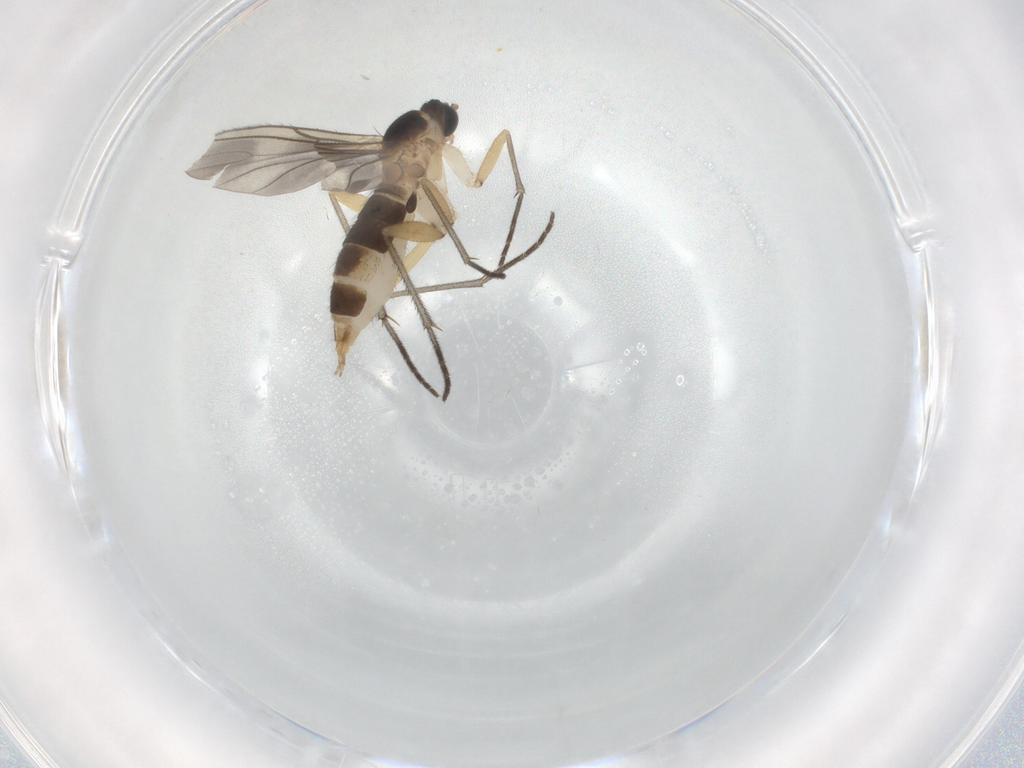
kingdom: Animalia
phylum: Arthropoda
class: Insecta
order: Diptera
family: Sciaridae
